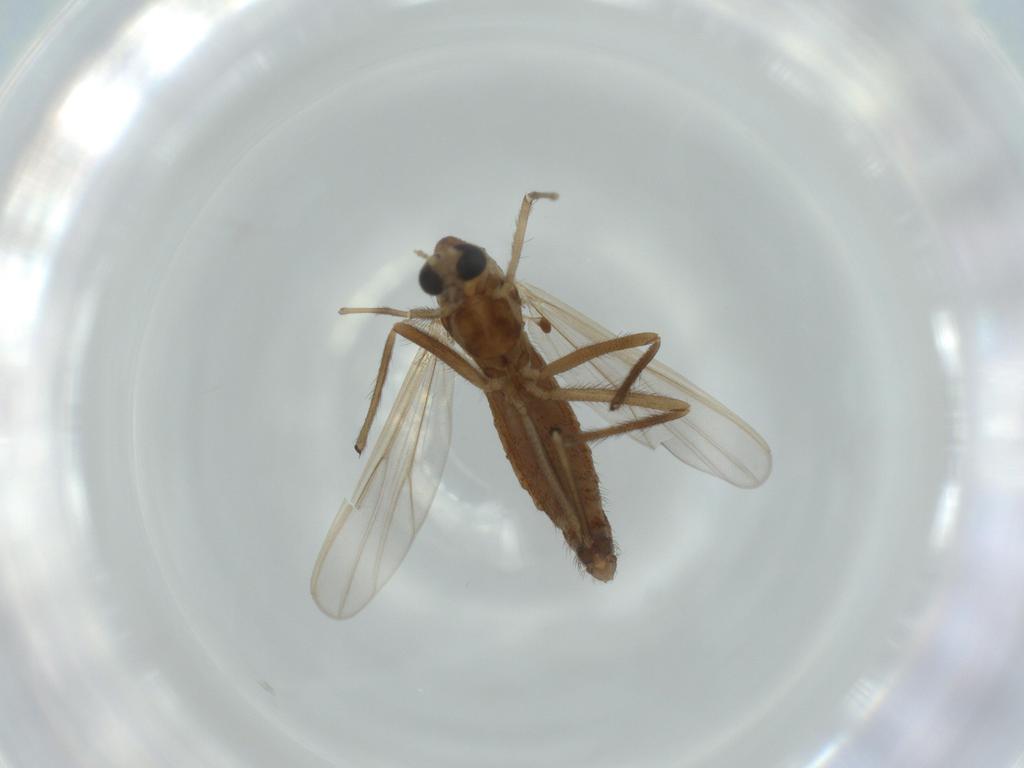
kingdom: Animalia
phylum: Arthropoda
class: Insecta
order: Diptera
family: Chironomidae
